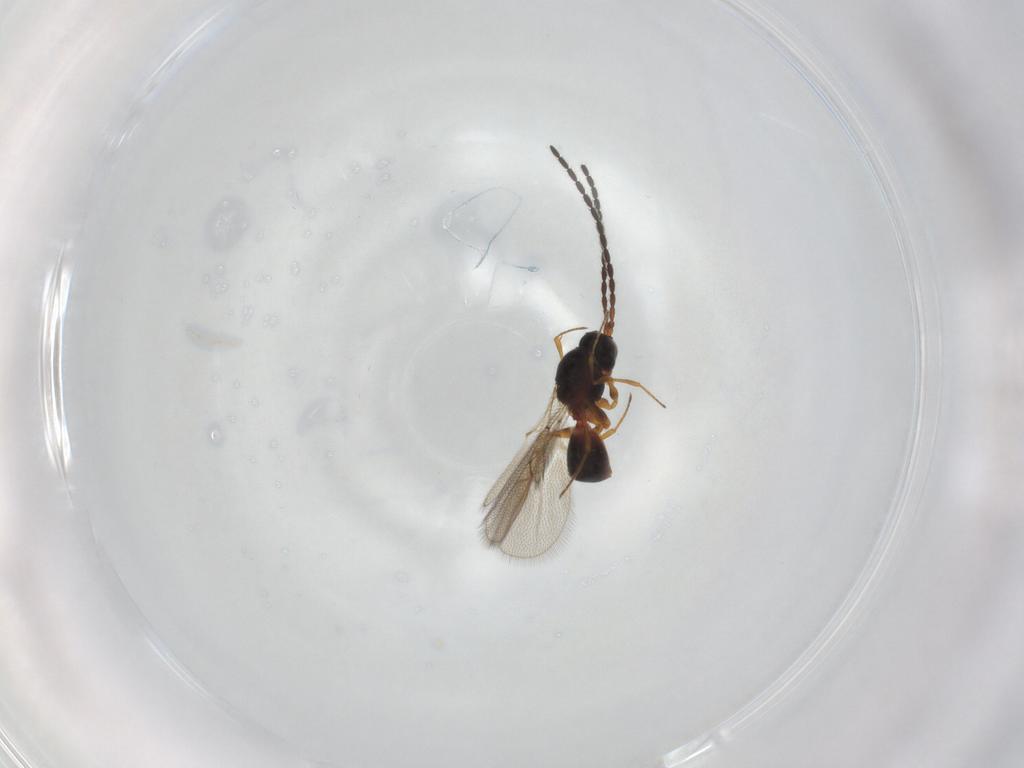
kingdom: Animalia
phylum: Arthropoda
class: Insecta
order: Hymenoptera
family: Figitidae
